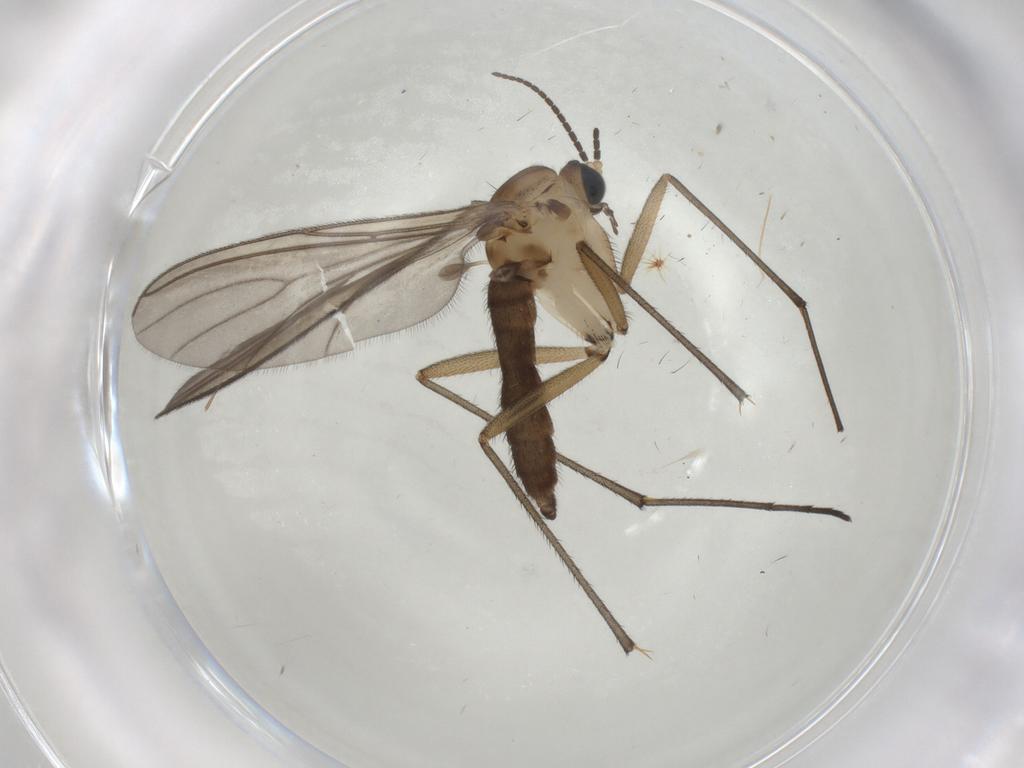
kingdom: Animalia
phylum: Arthropoda
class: Insecta
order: Diptera
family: Sciaridae
